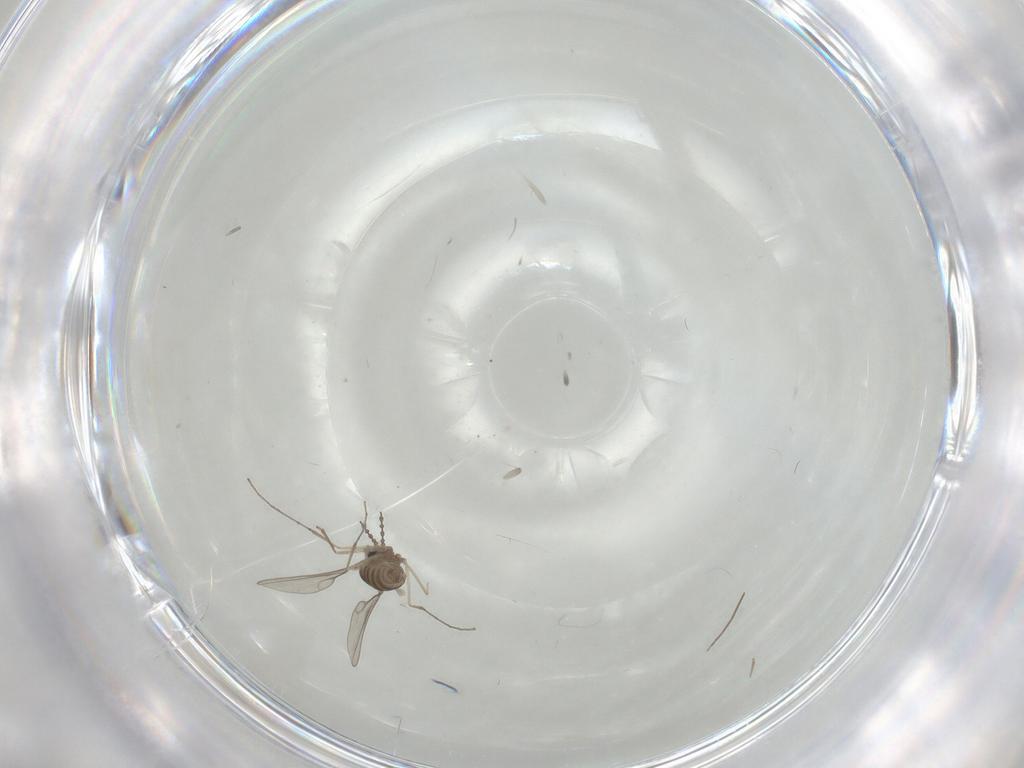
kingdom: Animalia
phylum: Arthropoda
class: Insecta
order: Diptera
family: Cecidomyiidae
